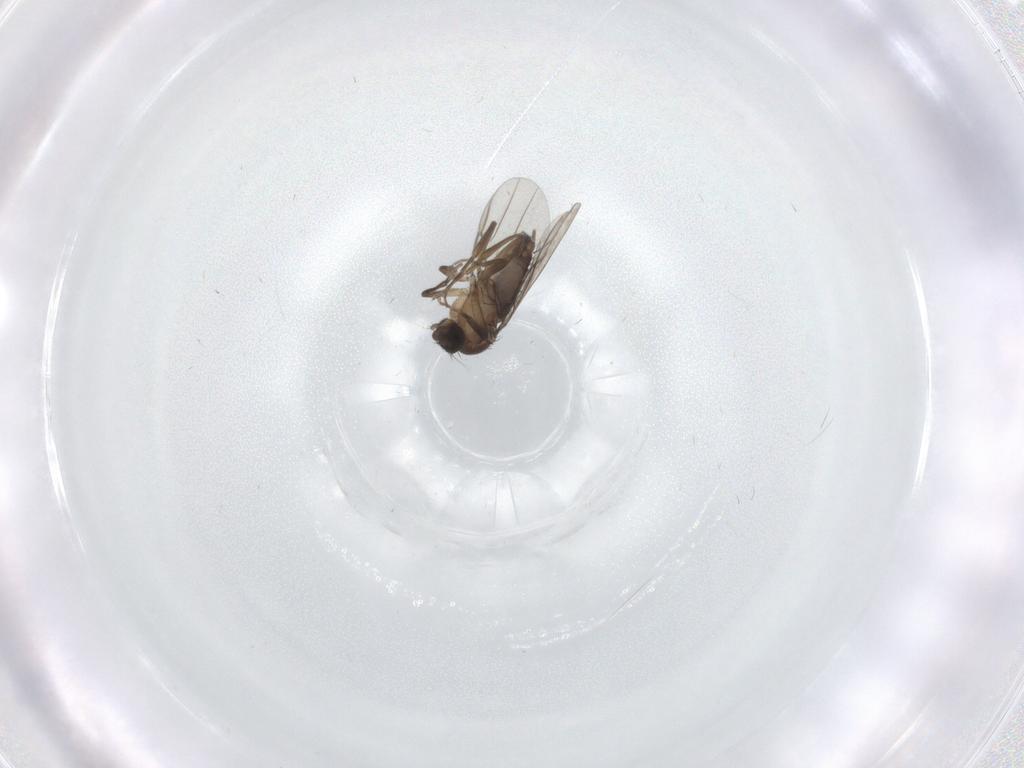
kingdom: Animalia
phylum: Arthropoda
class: Insecta
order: Diptera
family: Phoridae
